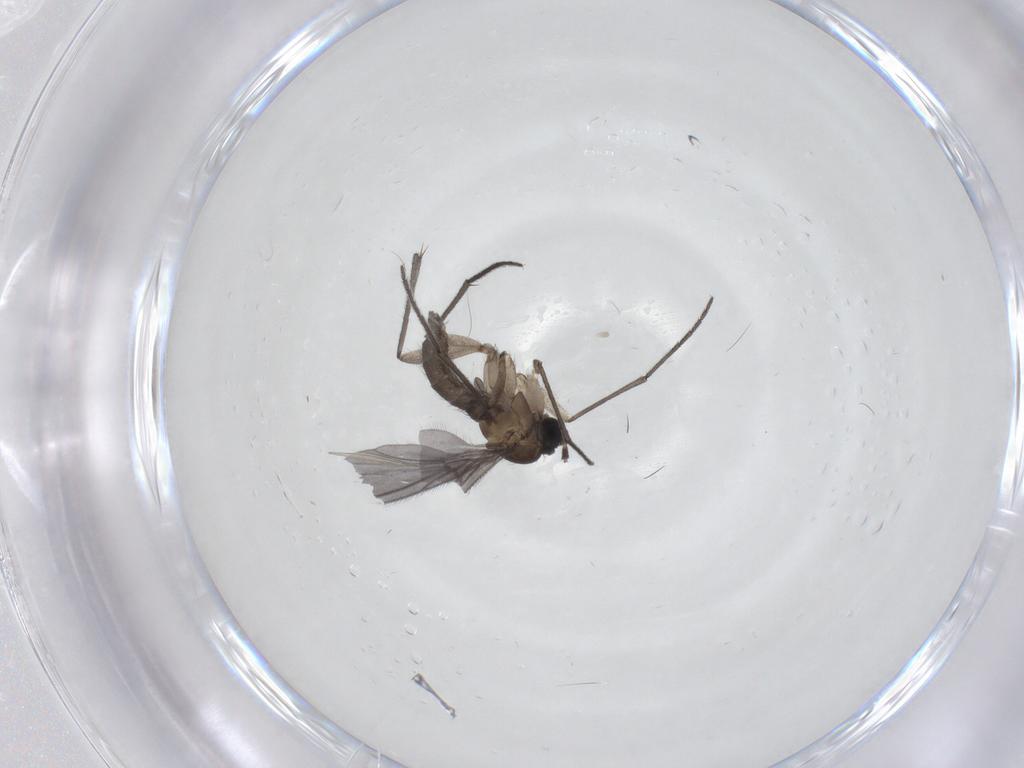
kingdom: Animalia
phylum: Arthropoda
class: Insecta
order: Diptera
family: Sciaridae
